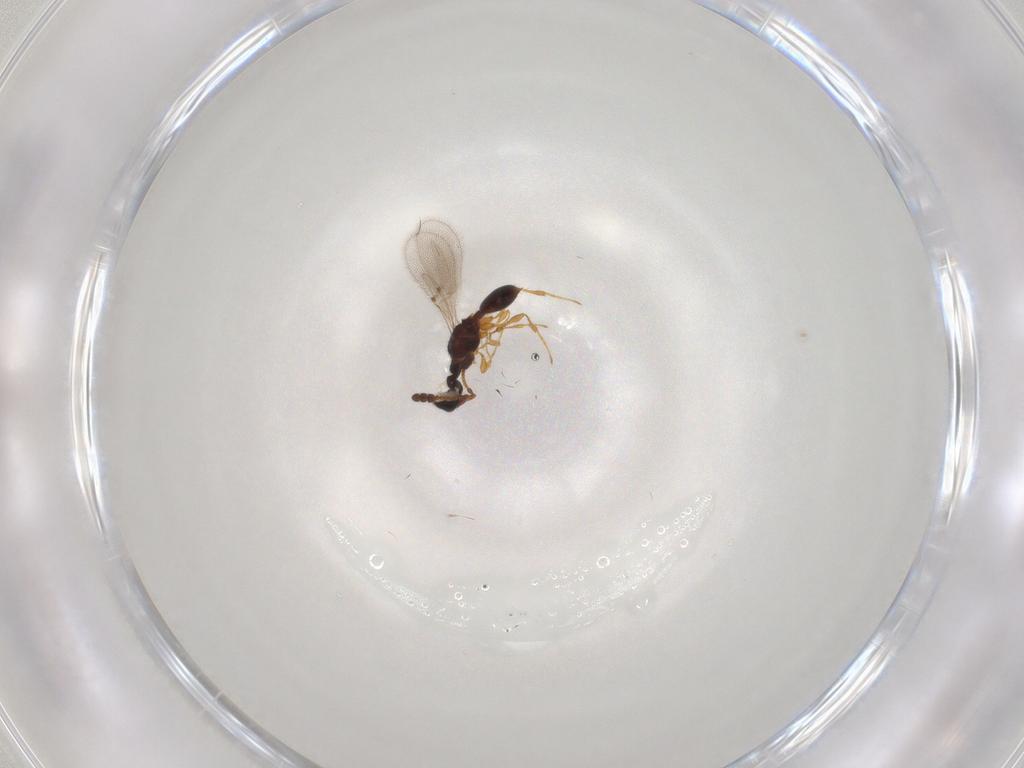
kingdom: Animalia
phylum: Arthropoda
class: Insecta
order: Hymenoptera
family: Diapriidae
